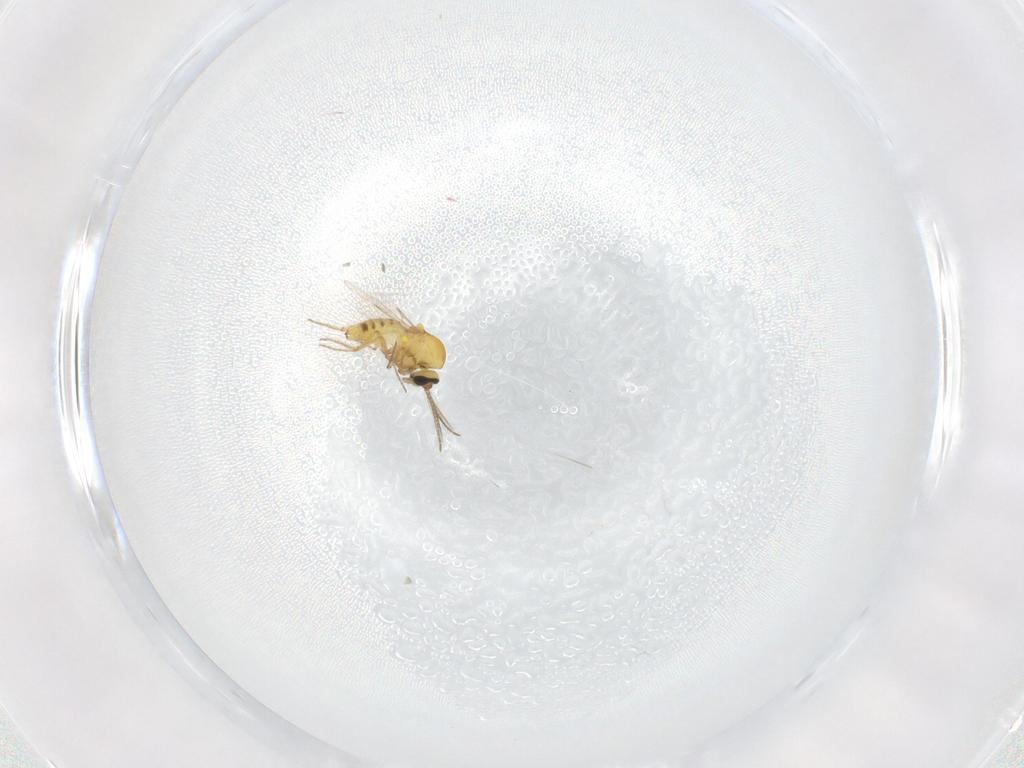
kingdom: Animalia
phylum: Arthropoda
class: Insecta
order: Diptera
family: Ceratopogonidae
